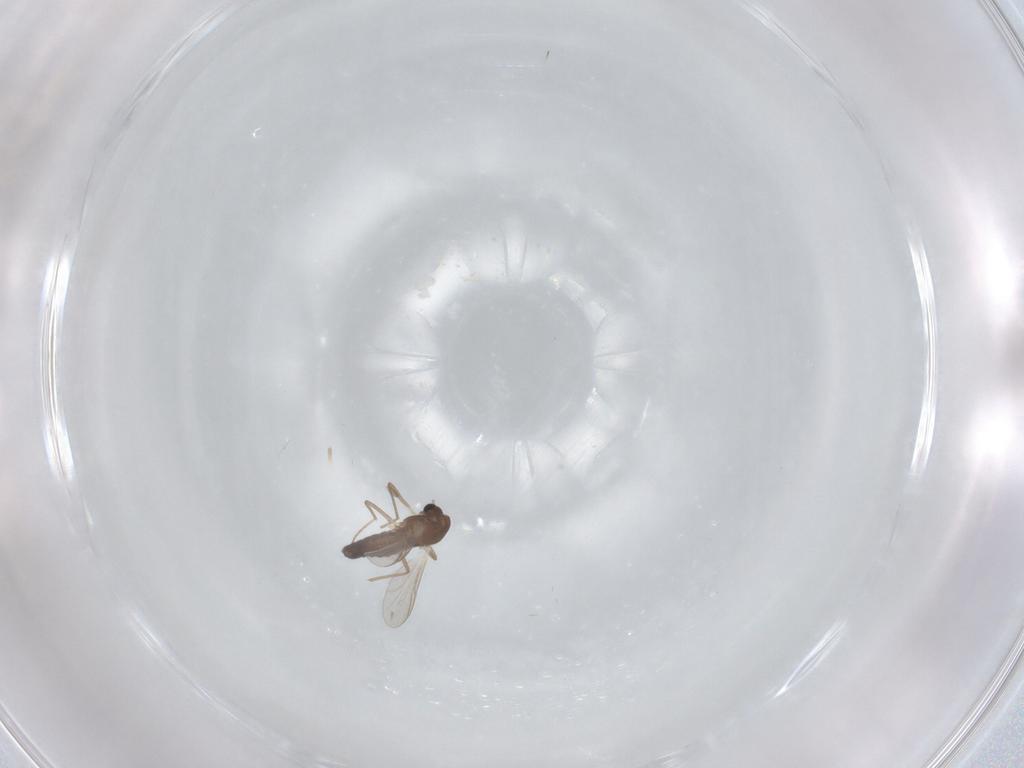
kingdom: Animalia
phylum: Arthropoda
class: Insecta
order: Diptera
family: Chironomidae
